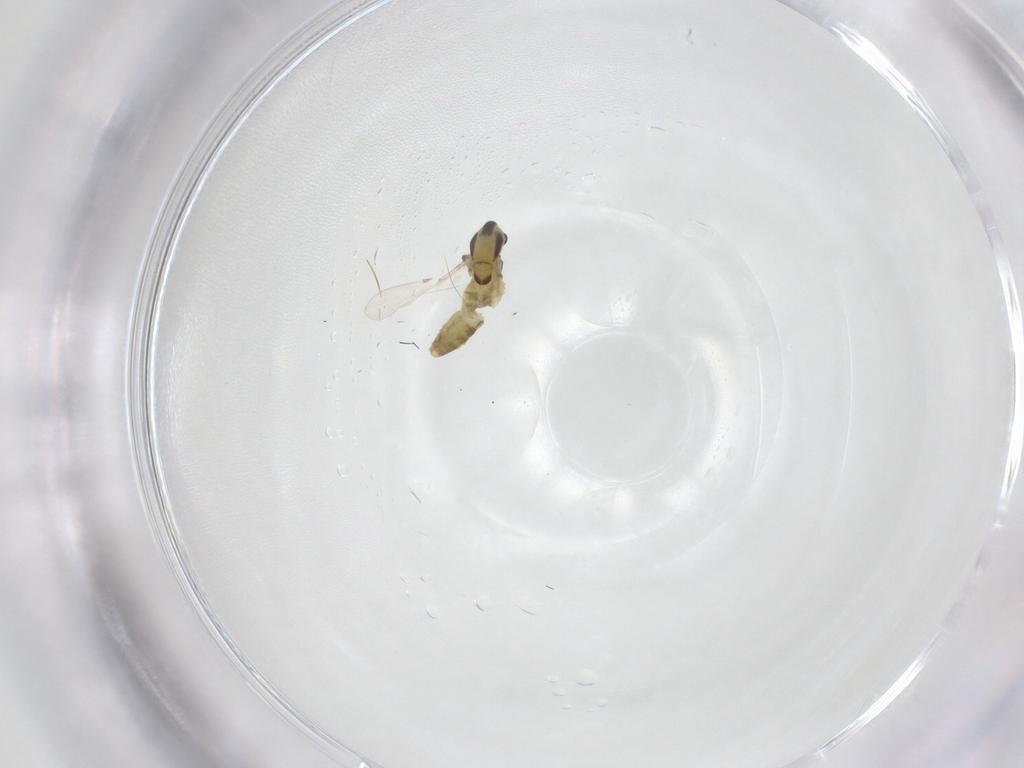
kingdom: Animalia
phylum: Arthropoda
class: Insecta
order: Diptera
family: Chironomidae
